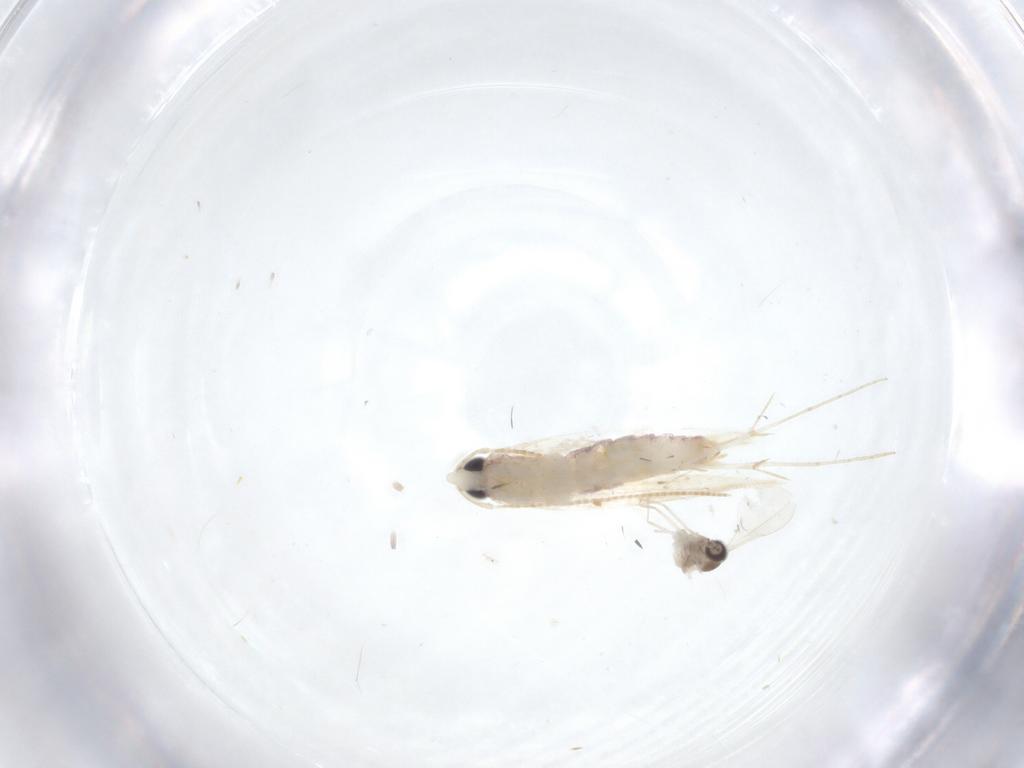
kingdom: Animalia
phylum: Arthropoda
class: Insecta
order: Diptera
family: Cecidomyiidae
